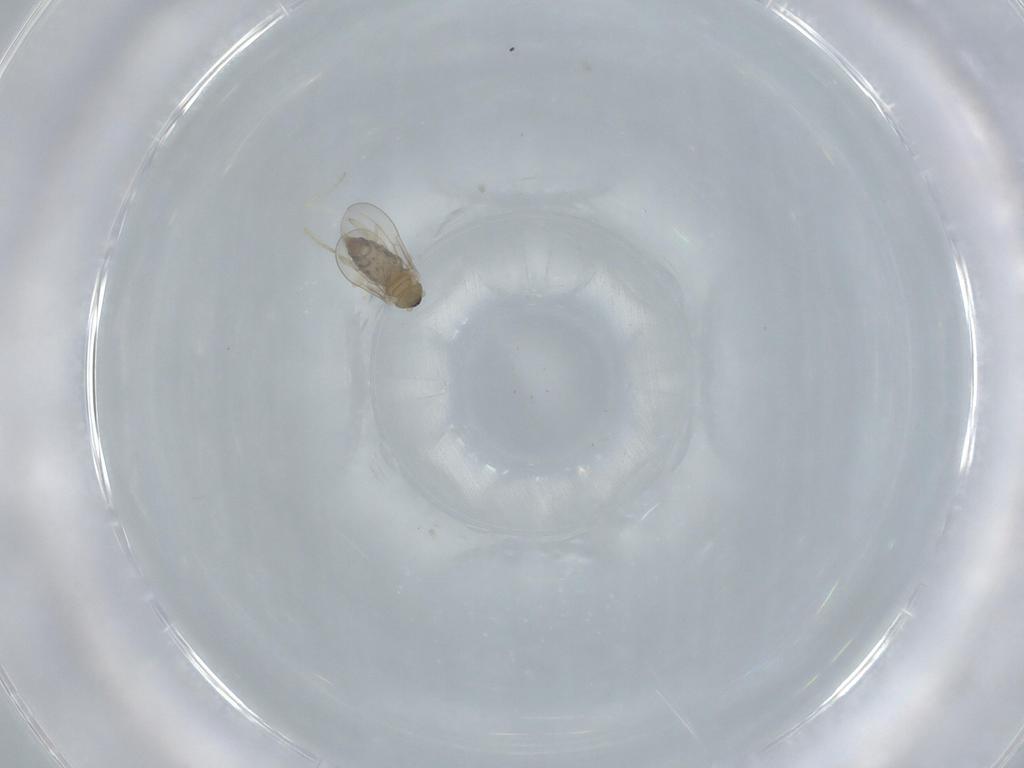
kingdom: Animalia
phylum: Arthropoda
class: Insecta
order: Diptera
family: Cecidomyiidae
